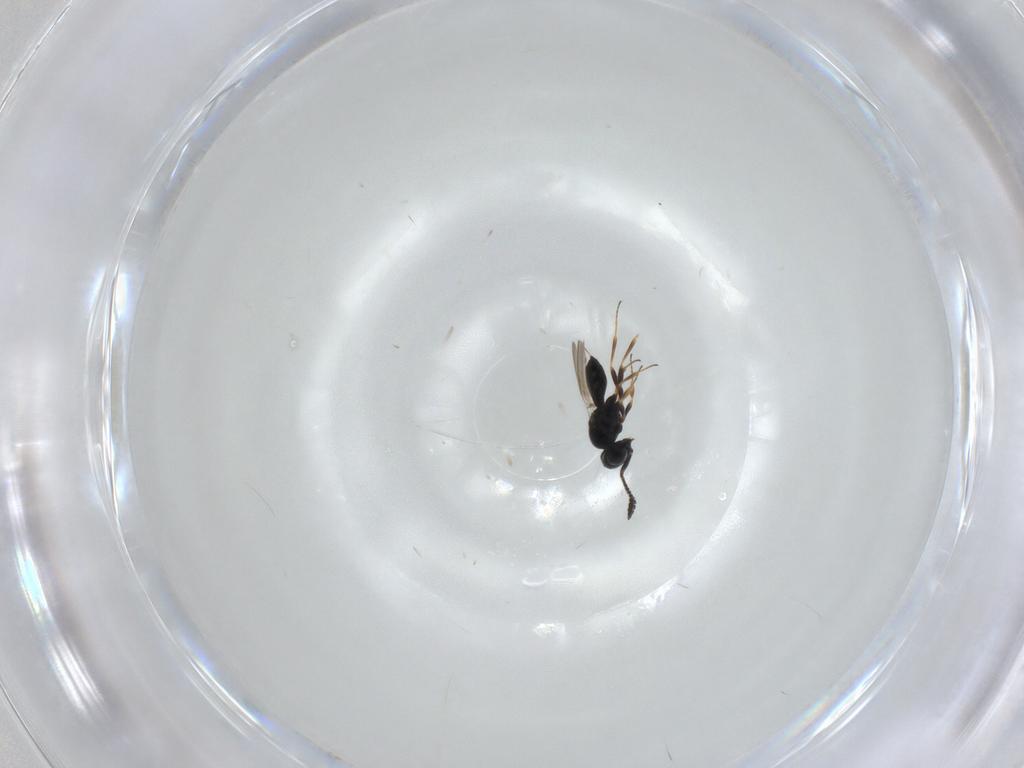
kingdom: Animalia
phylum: Arthropoda
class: Insecta
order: Hymenoptera
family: Scelionidae
